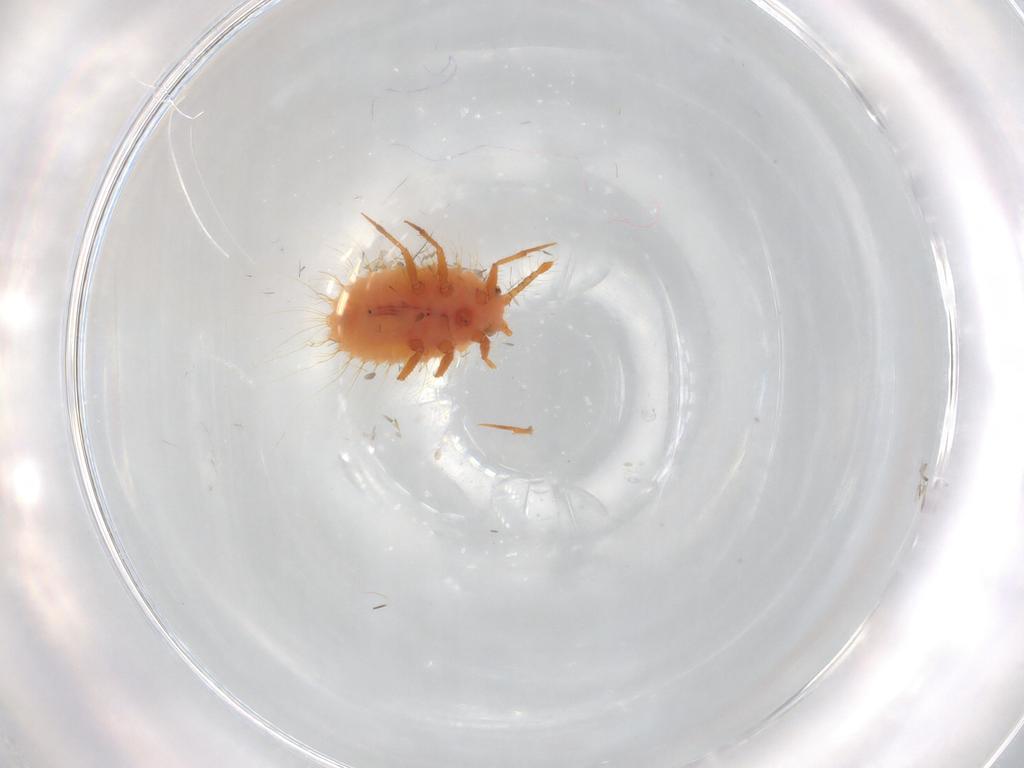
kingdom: Animalia
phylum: Arthropoda
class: Insecta
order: Hemiptera
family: Coccoidea_incertae_sedis
